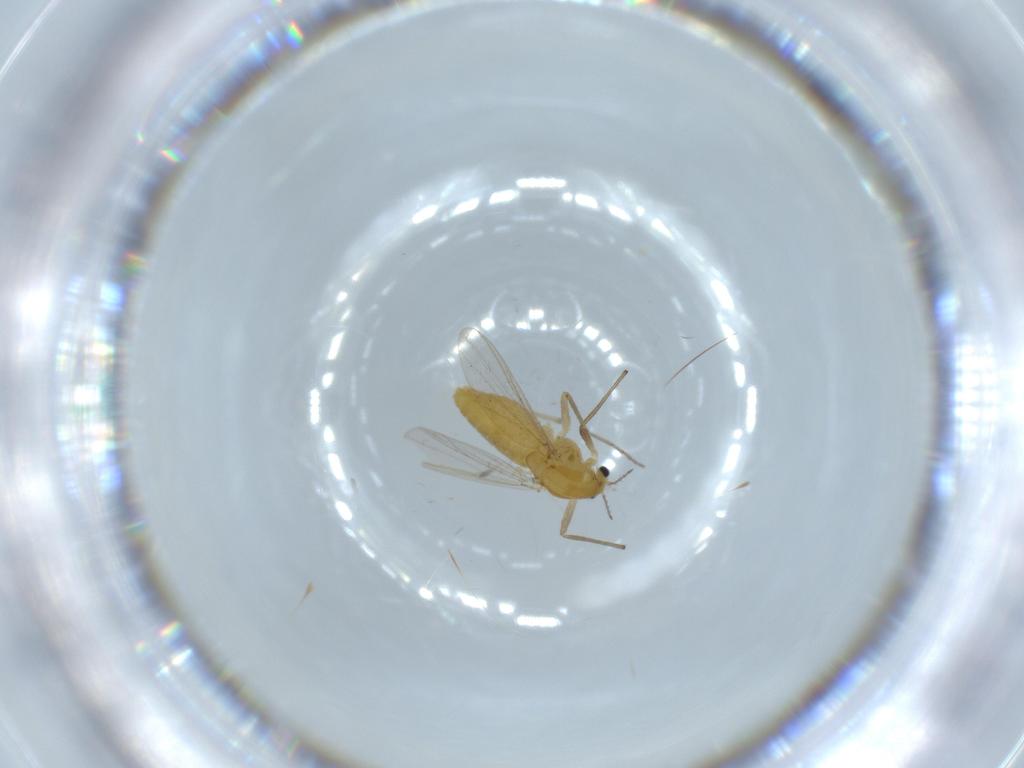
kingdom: Animalia
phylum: Arthropoda
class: Insecta
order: Diptera
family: Chironomidae
